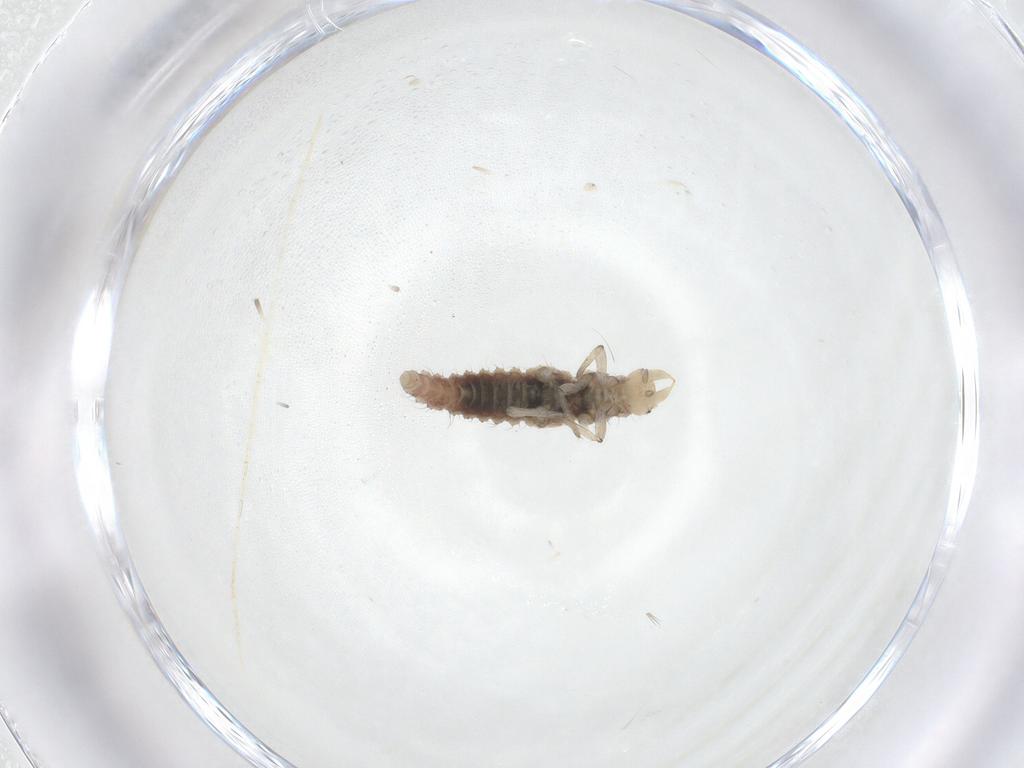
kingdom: Animalia
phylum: Arthropoda
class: Insecta
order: Neuroptera
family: Hemerobiidae
